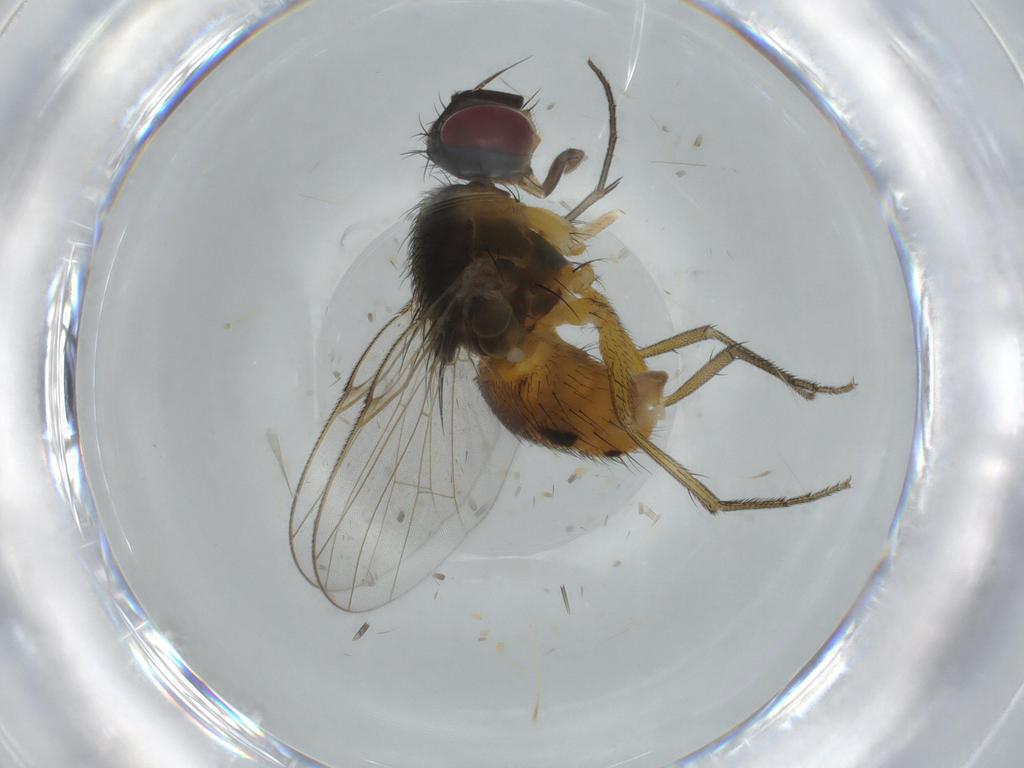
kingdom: Animalia
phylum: Arthropoda
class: Insecta
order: Diptera
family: Muscidae
